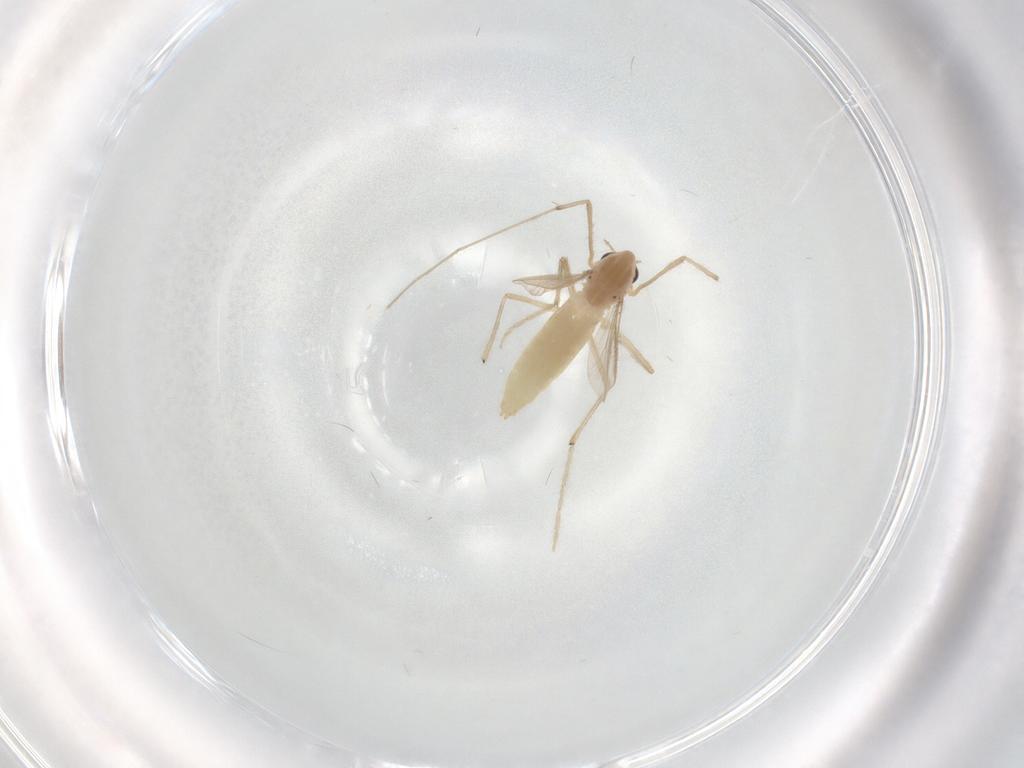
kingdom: Animalia
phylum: Arthropoda
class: Insecta
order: Diptera
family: Chironomidae
